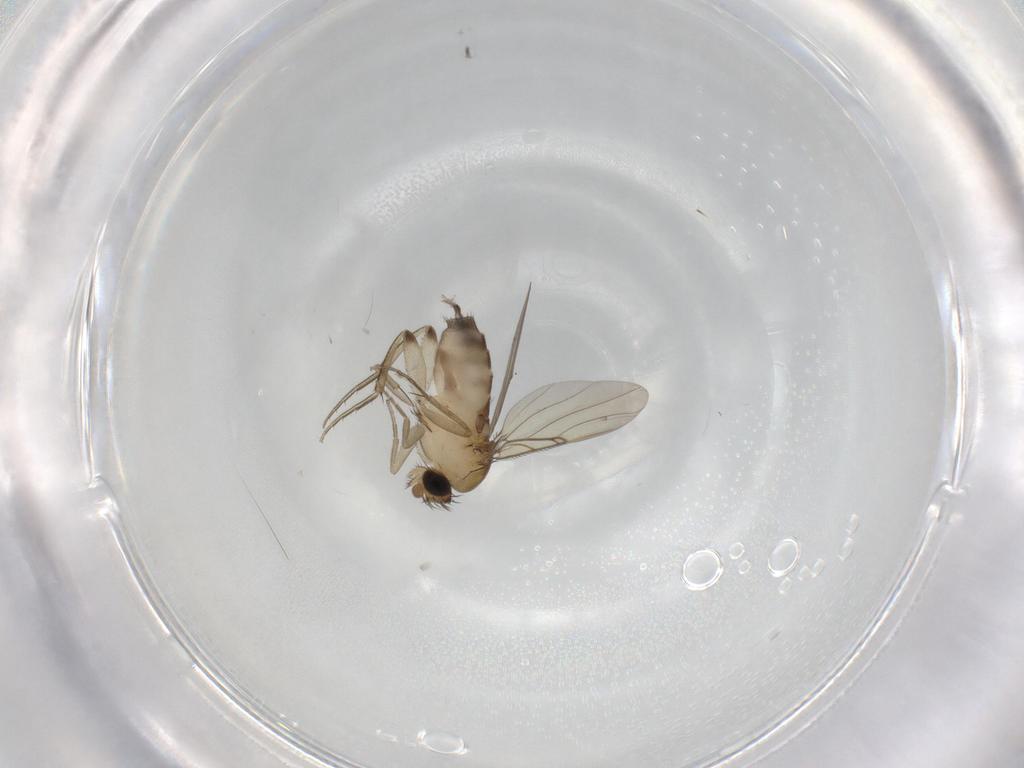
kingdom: Animalia
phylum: Arthropoda
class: Insecta
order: Diptera
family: Phoridae
